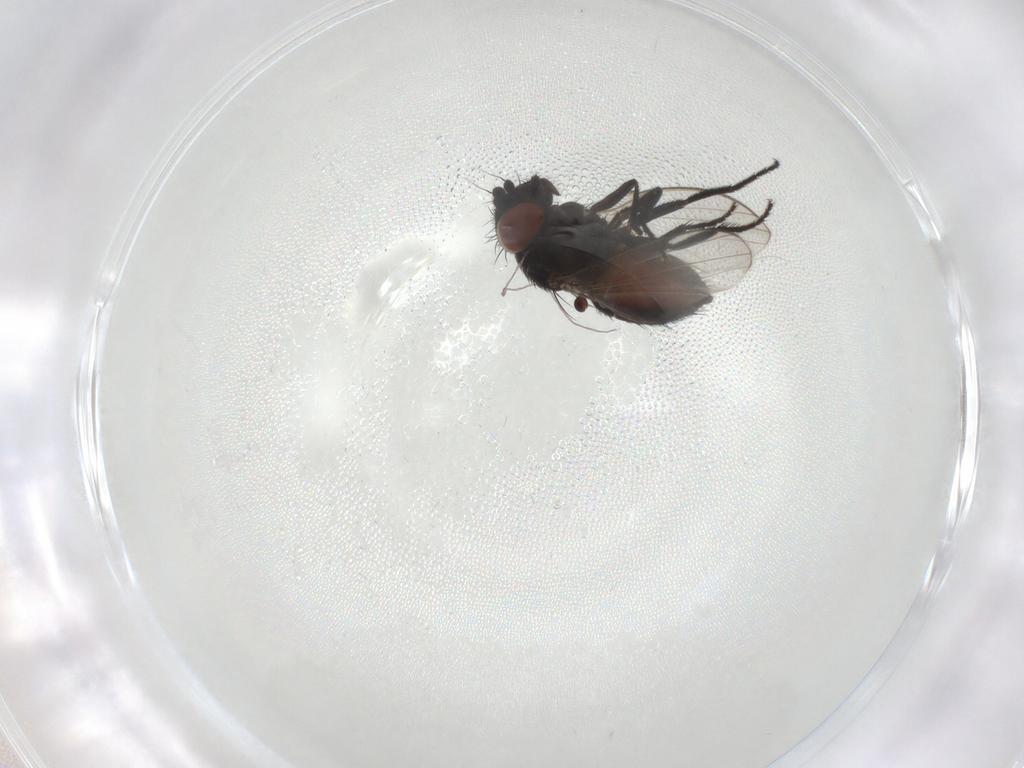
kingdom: Animalia
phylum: Arthropoda
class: Insecta
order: Diptera
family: Milichiidae
